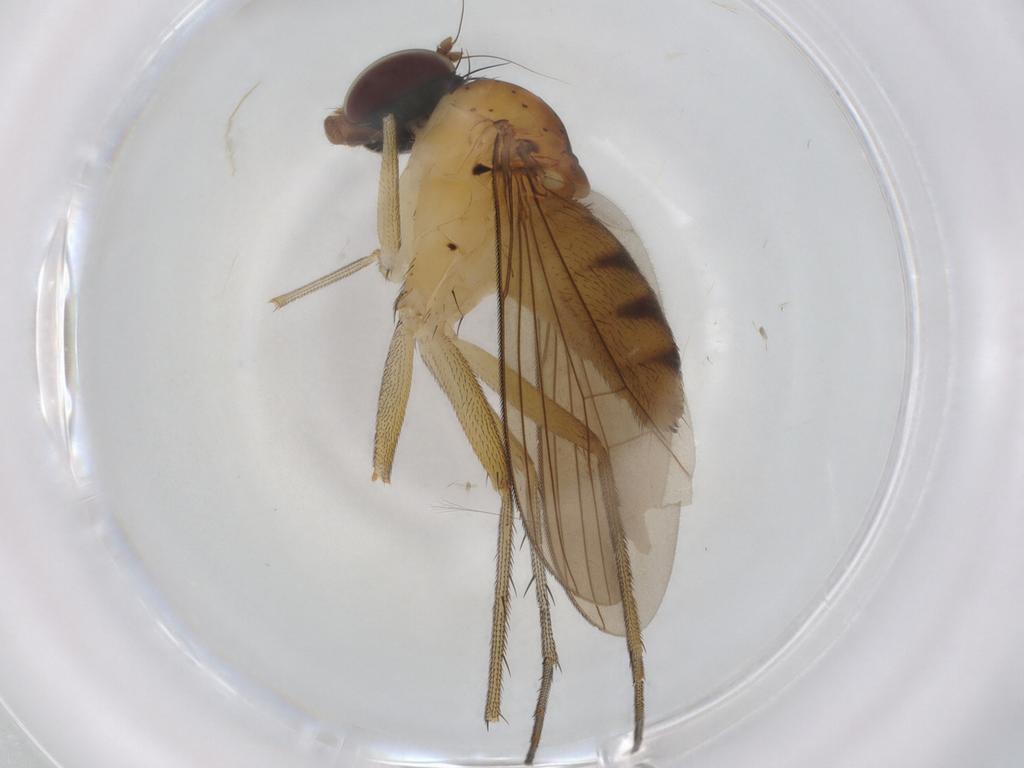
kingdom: Animalia
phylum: Arthropoda
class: Insecta
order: Diptera
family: Dolichopodidae
